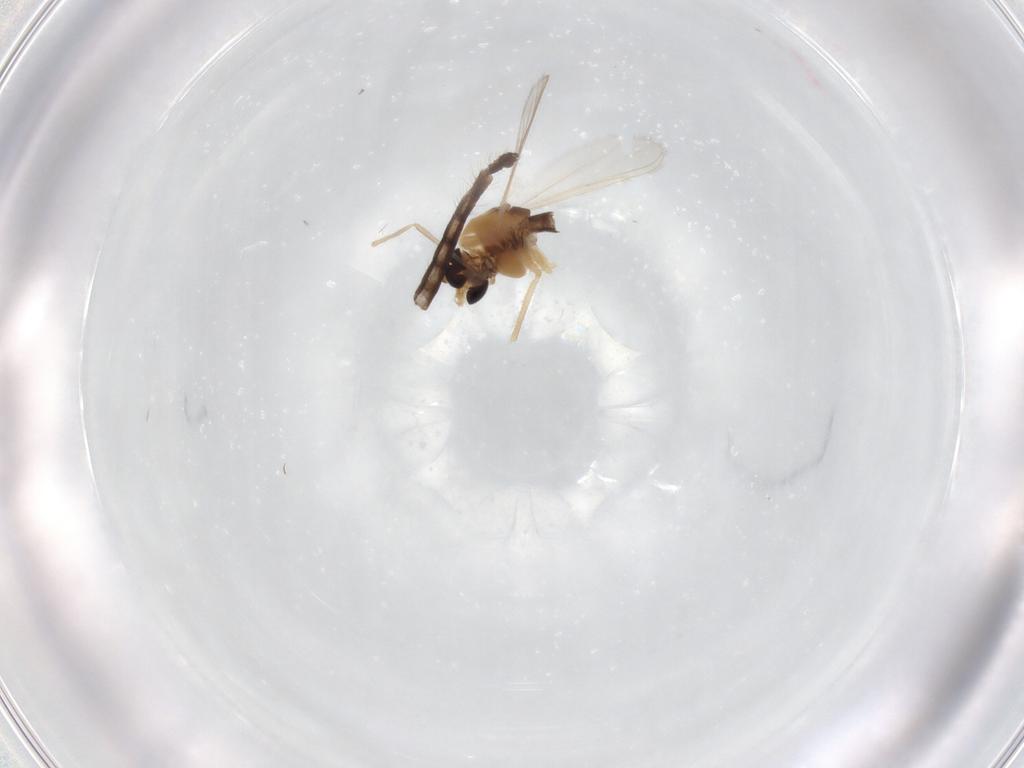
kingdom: Animalia
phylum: Arthropoda
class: Insecta
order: Diptera
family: Chironomidae
